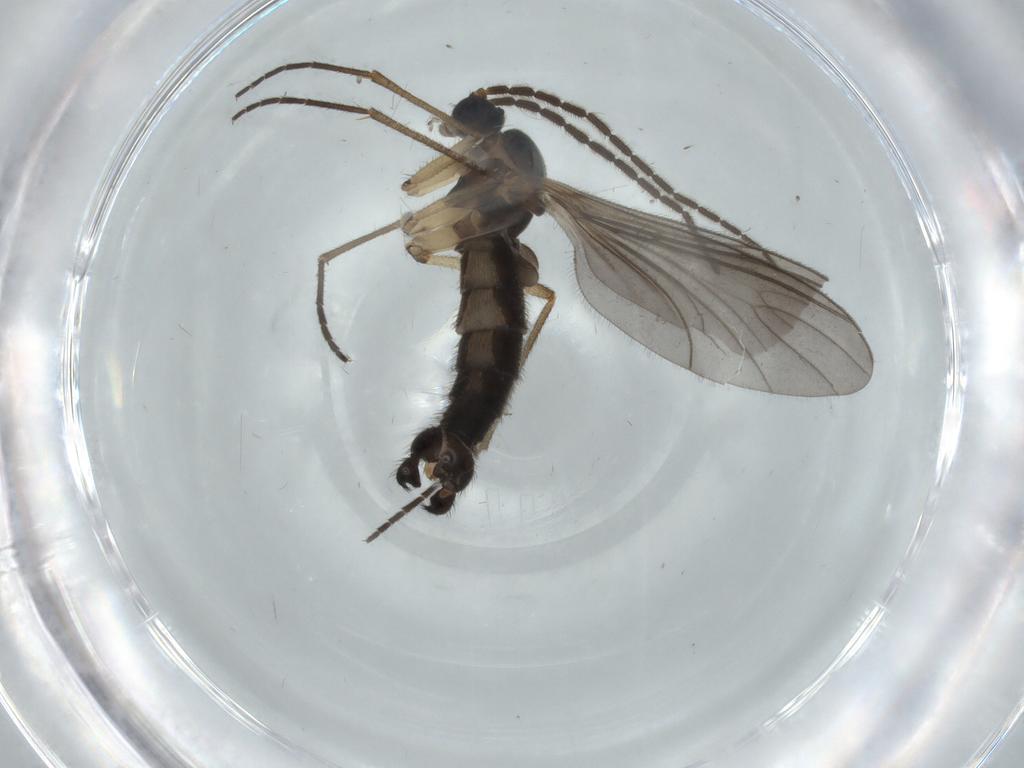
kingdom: Animalia
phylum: Arthropoda
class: Insecta
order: Diptera
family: Sciaridae
